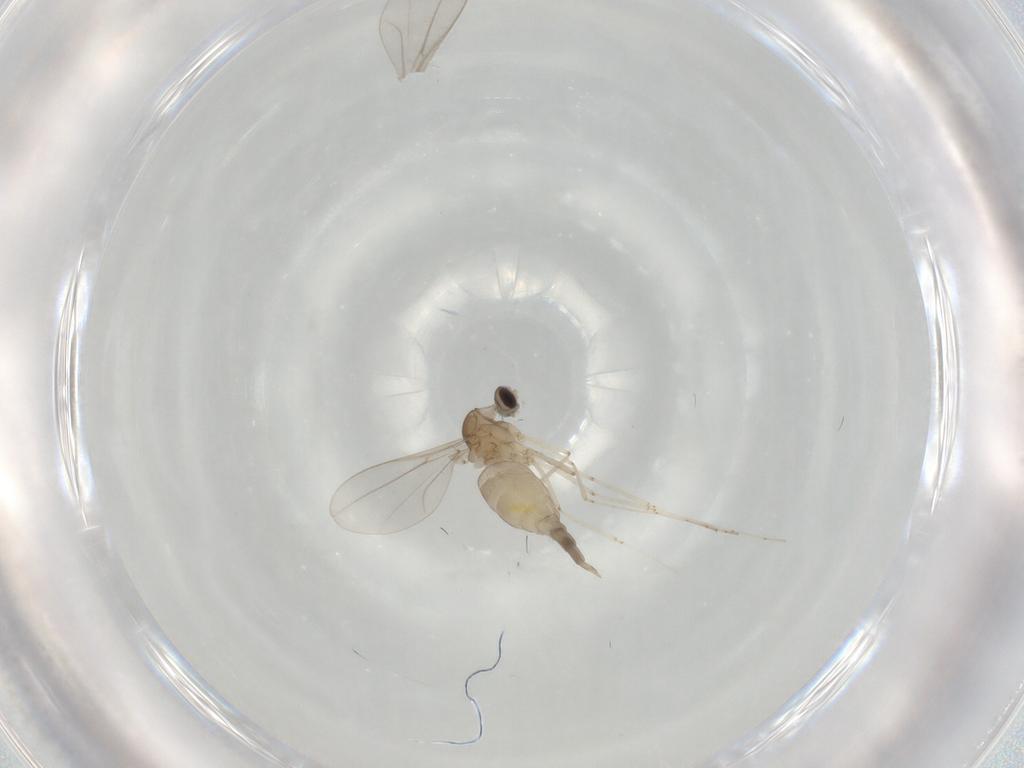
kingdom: Animalia
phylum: Arthropoda
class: Insecta
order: Diptera
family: Cecidomyiidae
